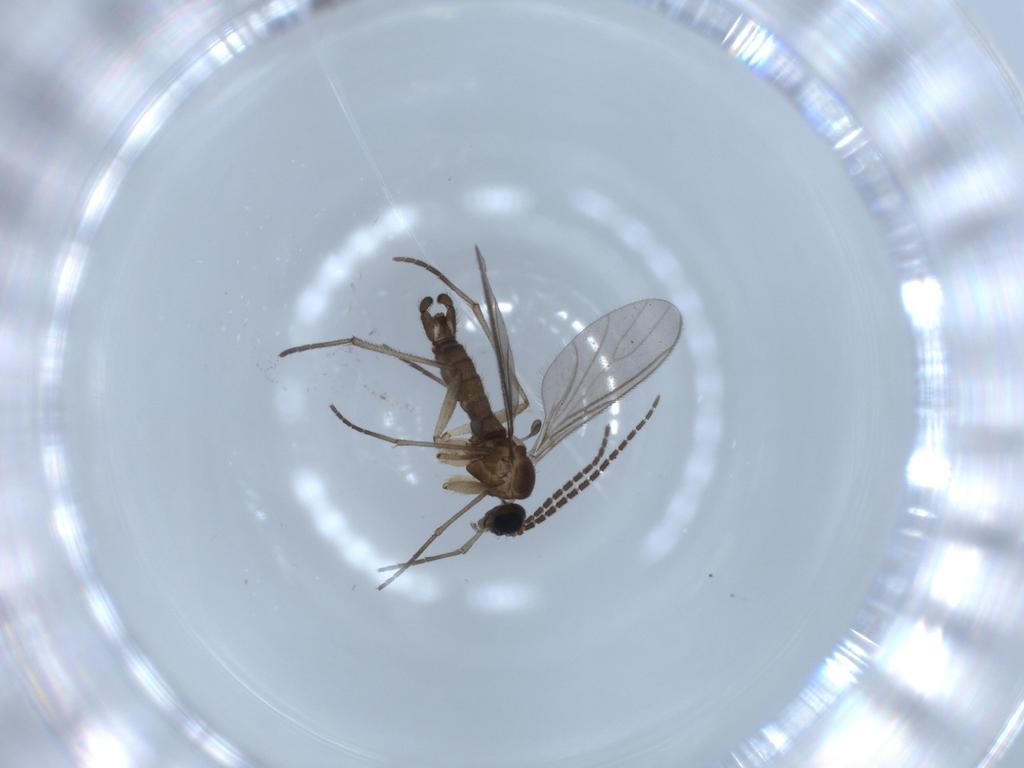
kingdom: Animalia
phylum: Arthropoda
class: Insecta
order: Diptera
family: Sciaridae
